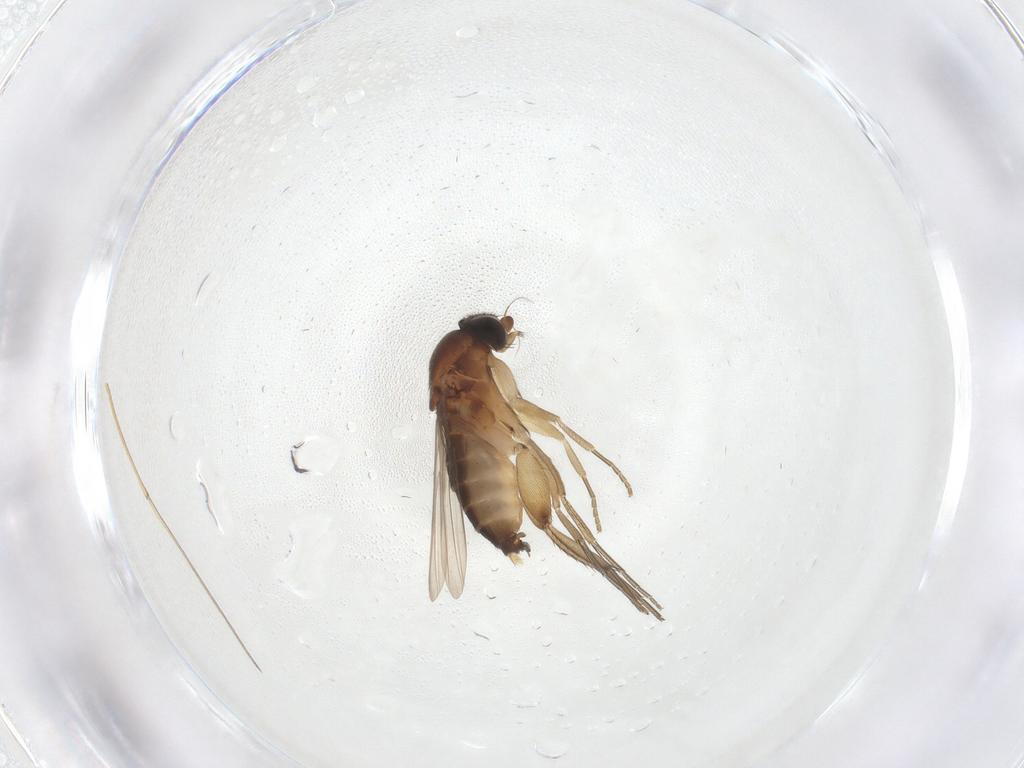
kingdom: Animalia
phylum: Arthropoda
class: Insecta
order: Diptera
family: Phoridae
